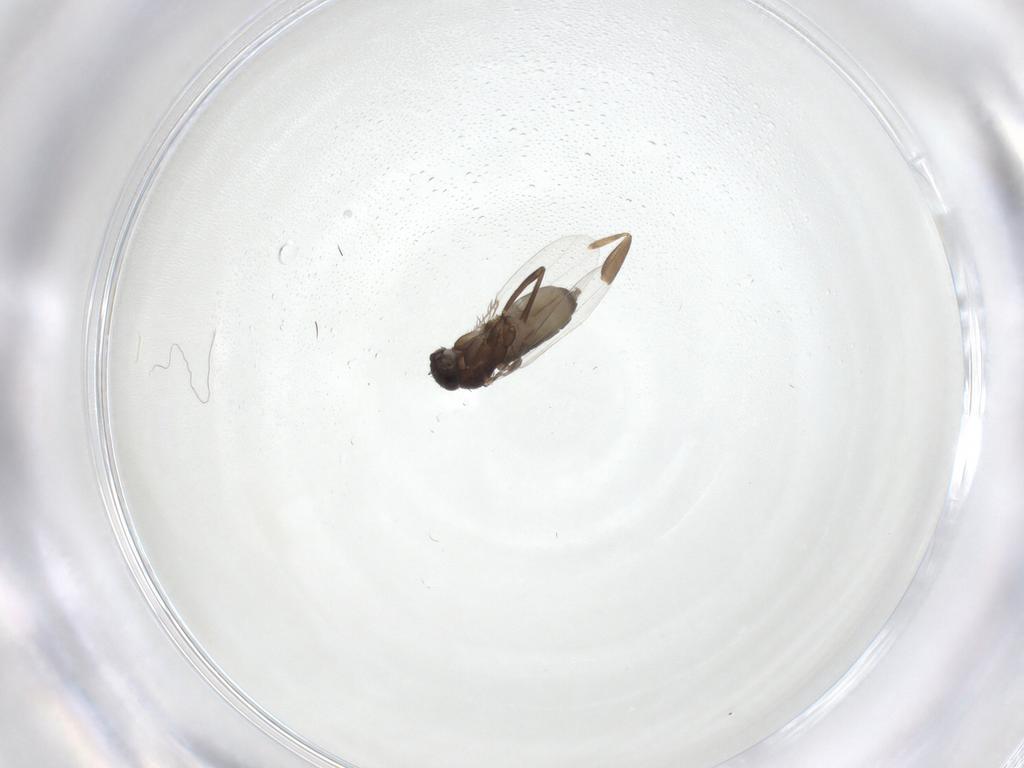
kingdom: Animalia
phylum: Arthropoda
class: Insecta
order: Diptera
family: Phoridae
